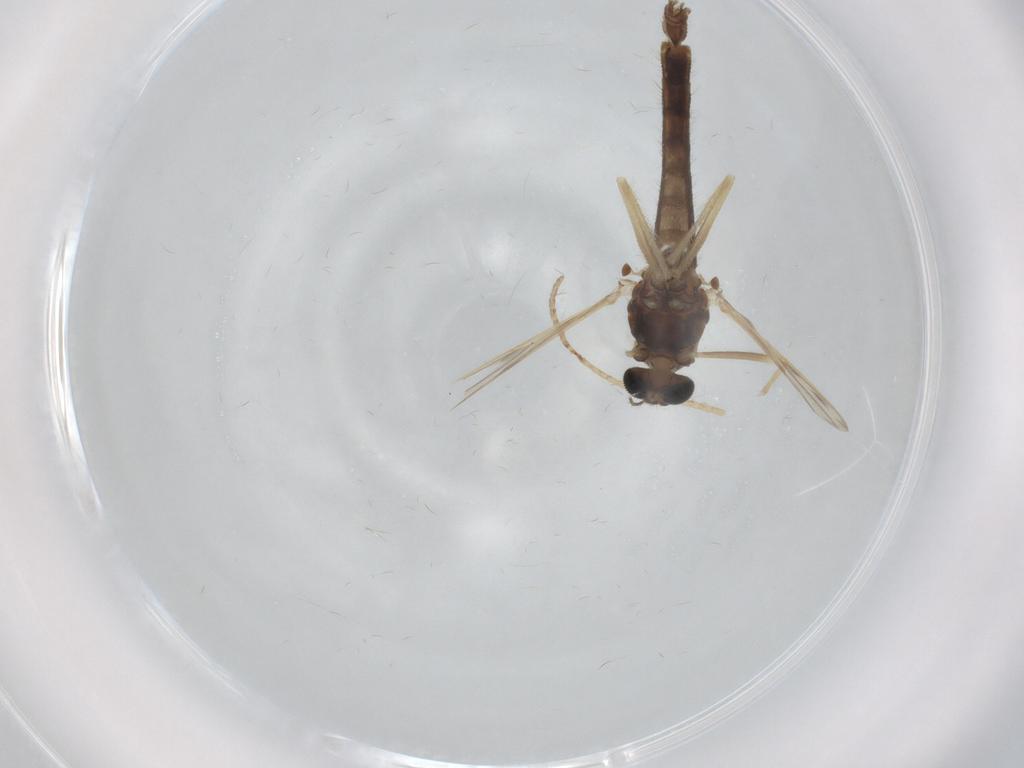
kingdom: Animalia
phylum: Arthropoda
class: Insecta
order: Diptera
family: Chironomidae
